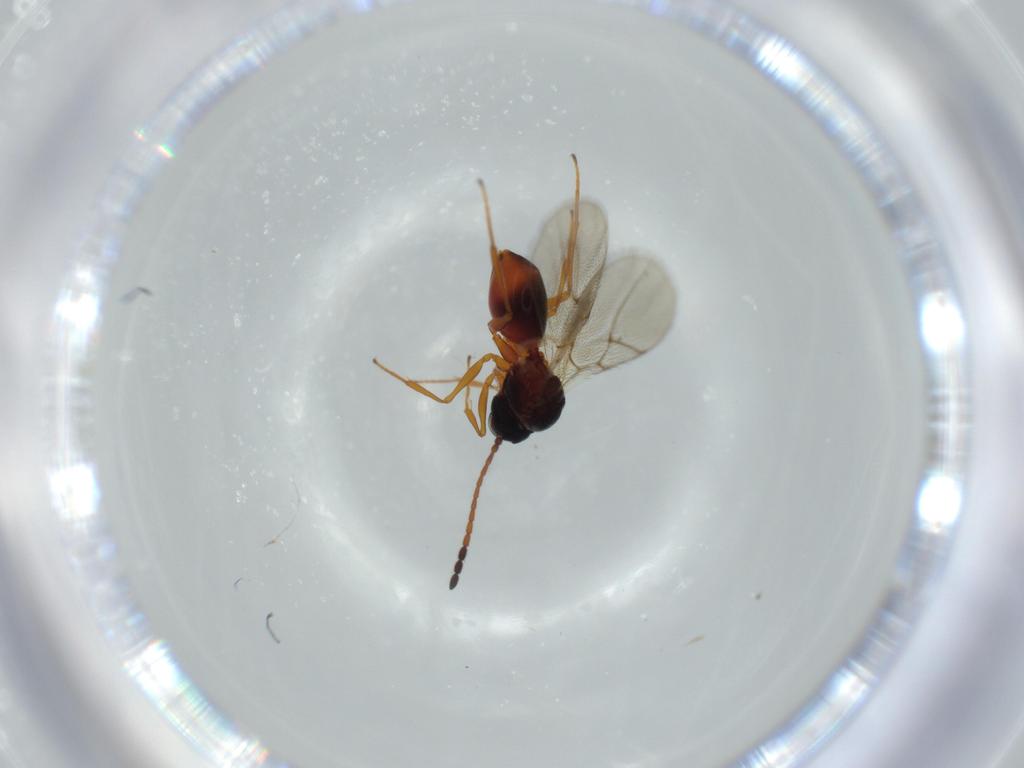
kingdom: Animalia
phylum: Arthropoda
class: Insecta
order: Hymenoptera
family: Figitidae
